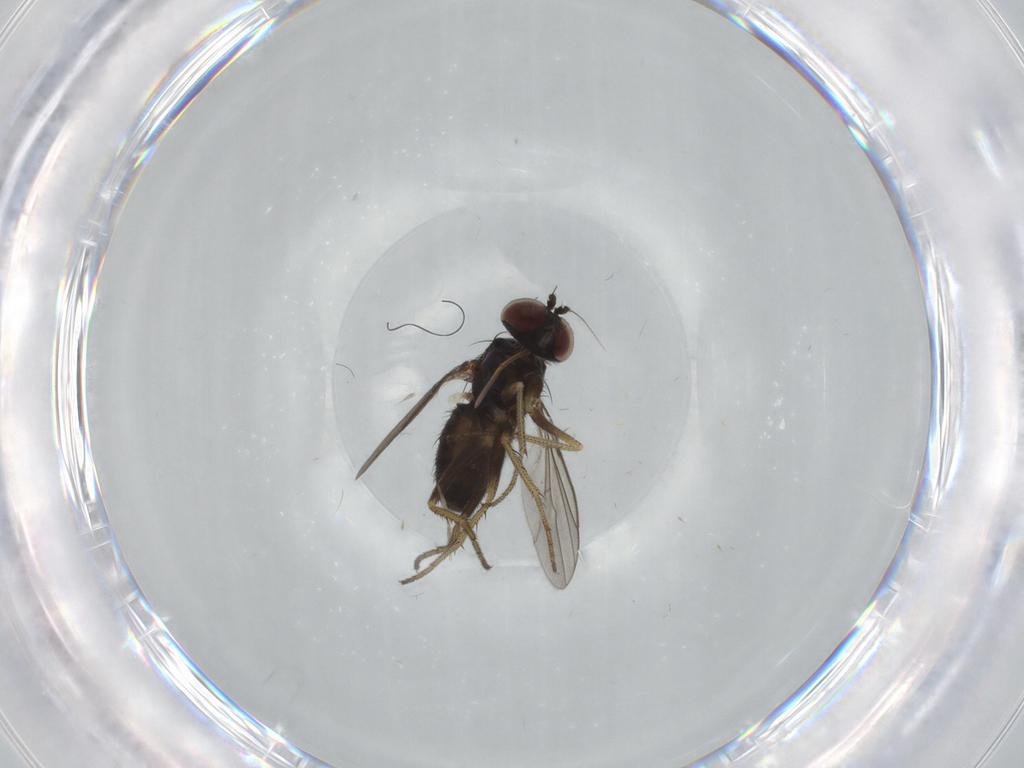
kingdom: Animalia
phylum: Arthropoda
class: Insecta
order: Diptera
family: Dolichopodidae
